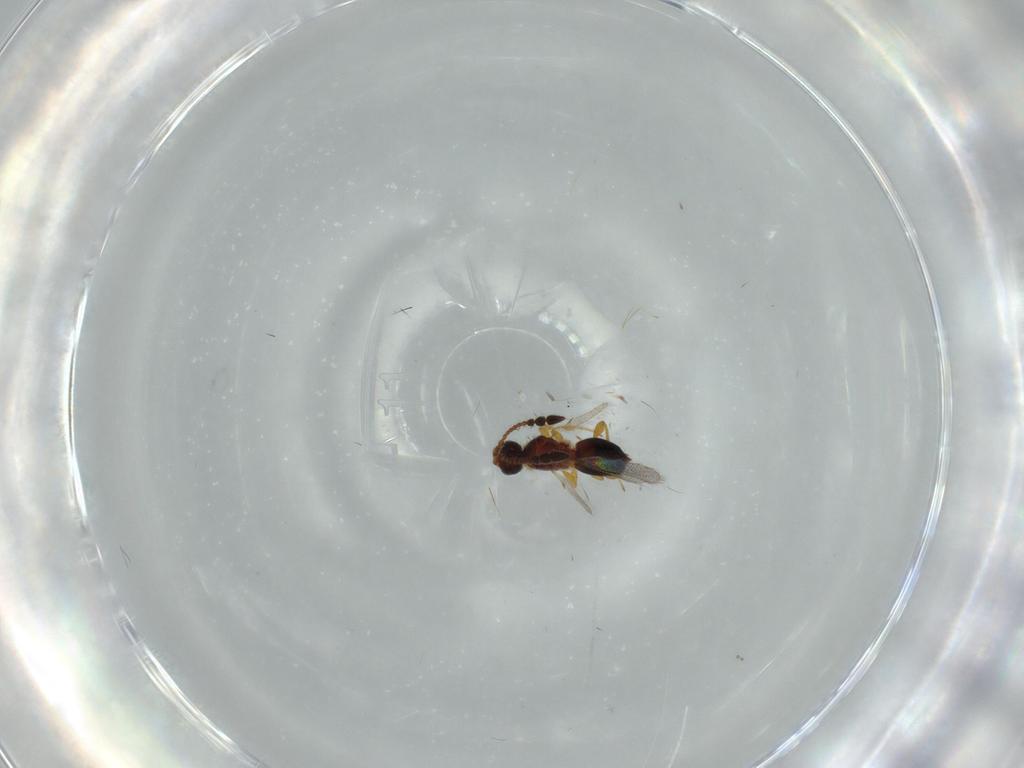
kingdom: Animalia
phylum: Arthropoda
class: Insecta
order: Hymenoptera
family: Diapriidae
